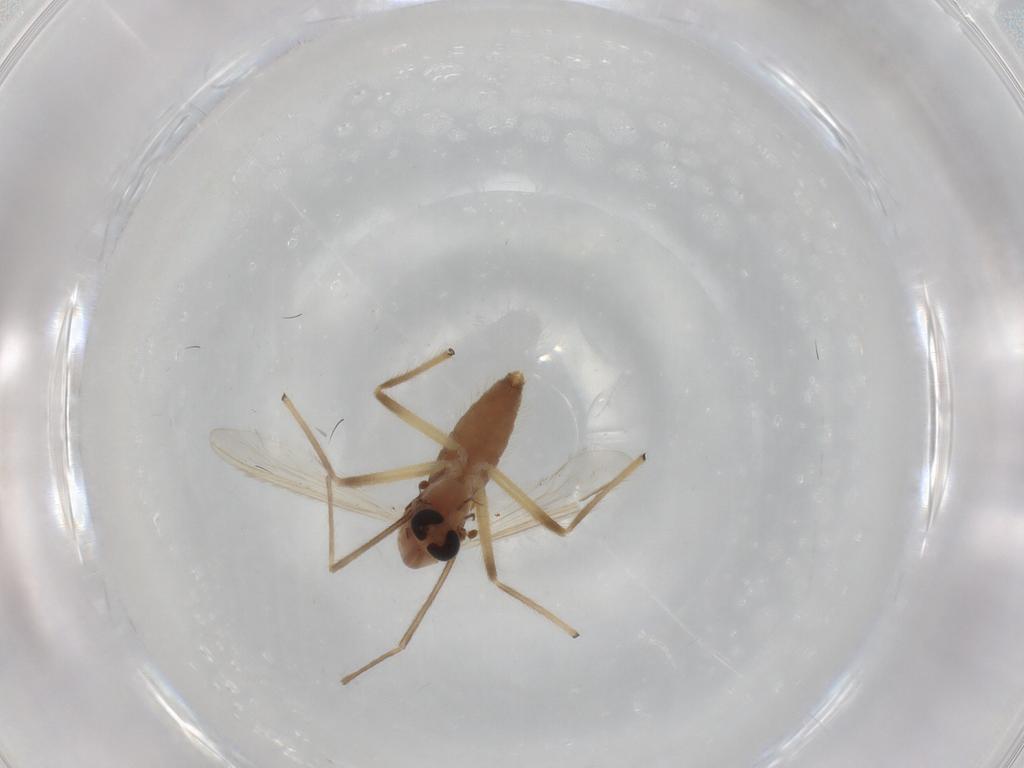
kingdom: Animalia
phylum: Arthropoda
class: Insecta
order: Diptera
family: Chironomidae
